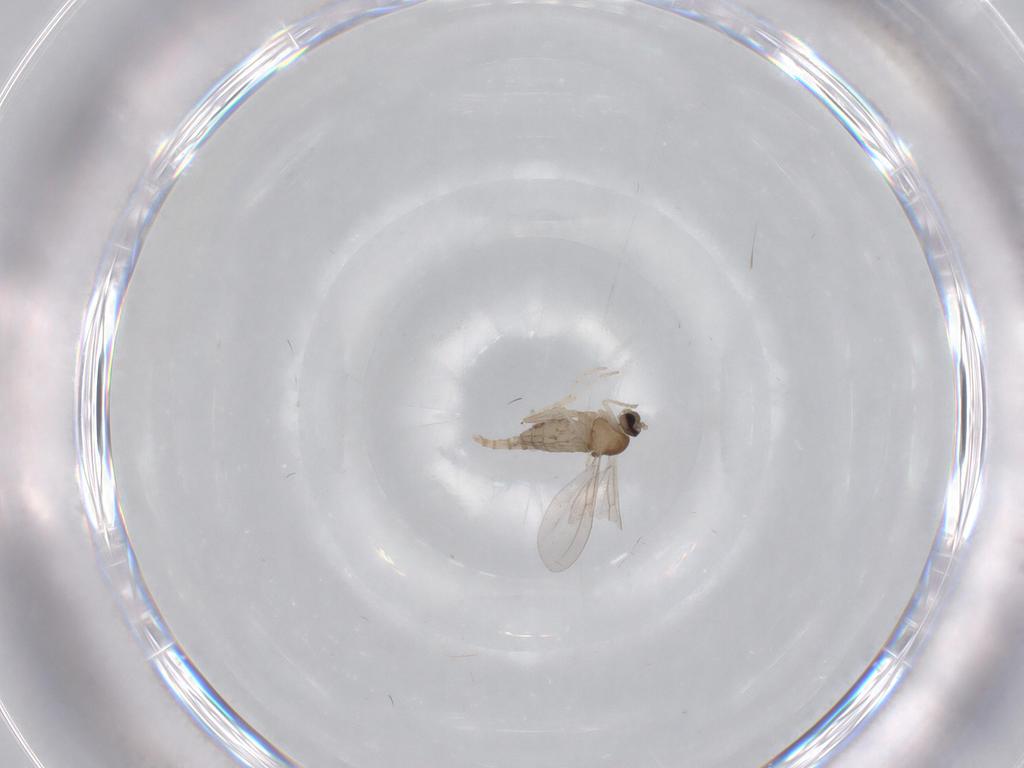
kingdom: Animalia
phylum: Arthropoda
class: Insecta
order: Diptera
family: Cecidomyiidae
